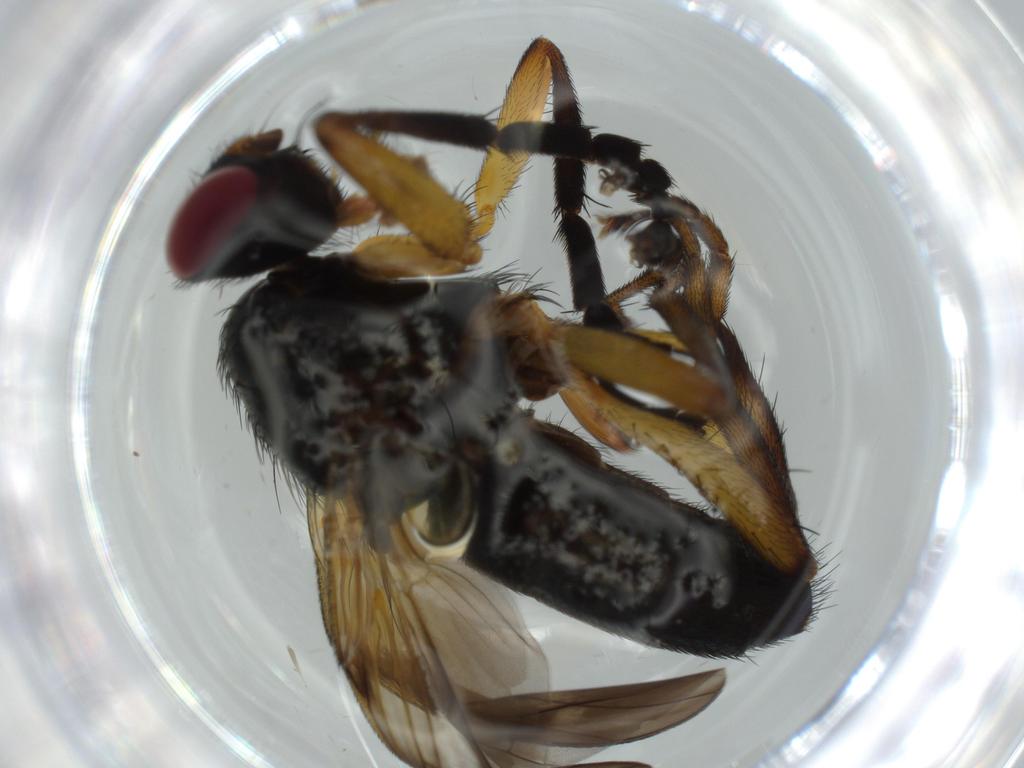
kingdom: Animalia
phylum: Arthropoda
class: Insecta
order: Diptera
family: Calliphoridae
